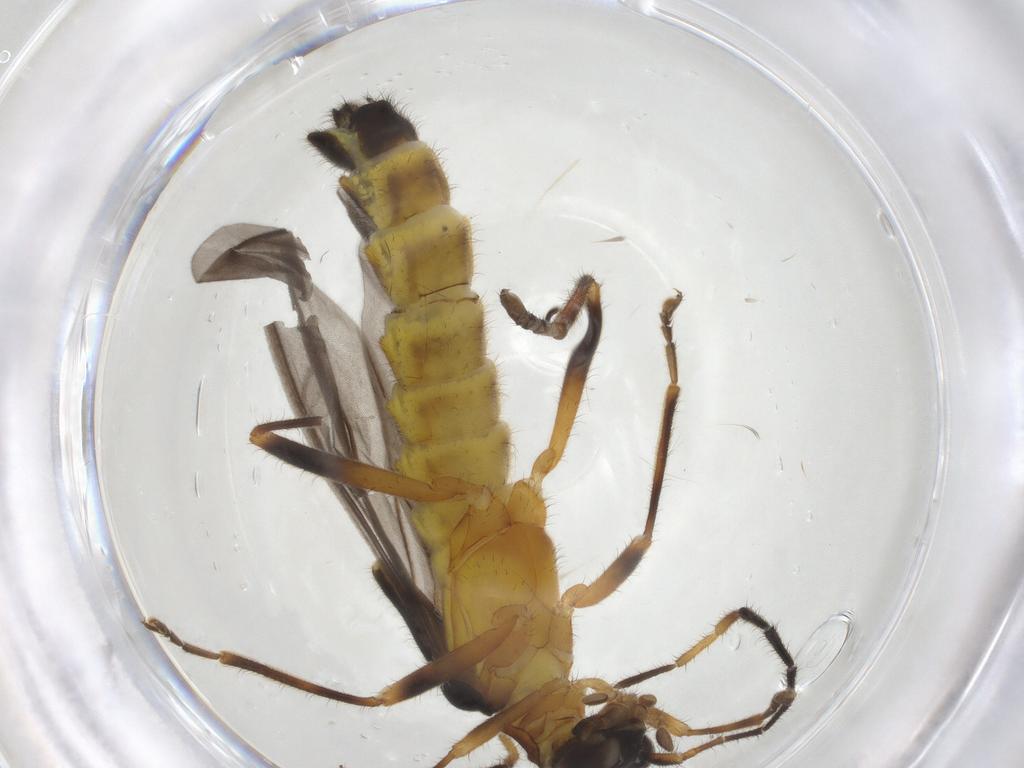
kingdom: Animalia
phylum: Arthropoda
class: Insecta
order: Coleoptera
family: Cantharidae
